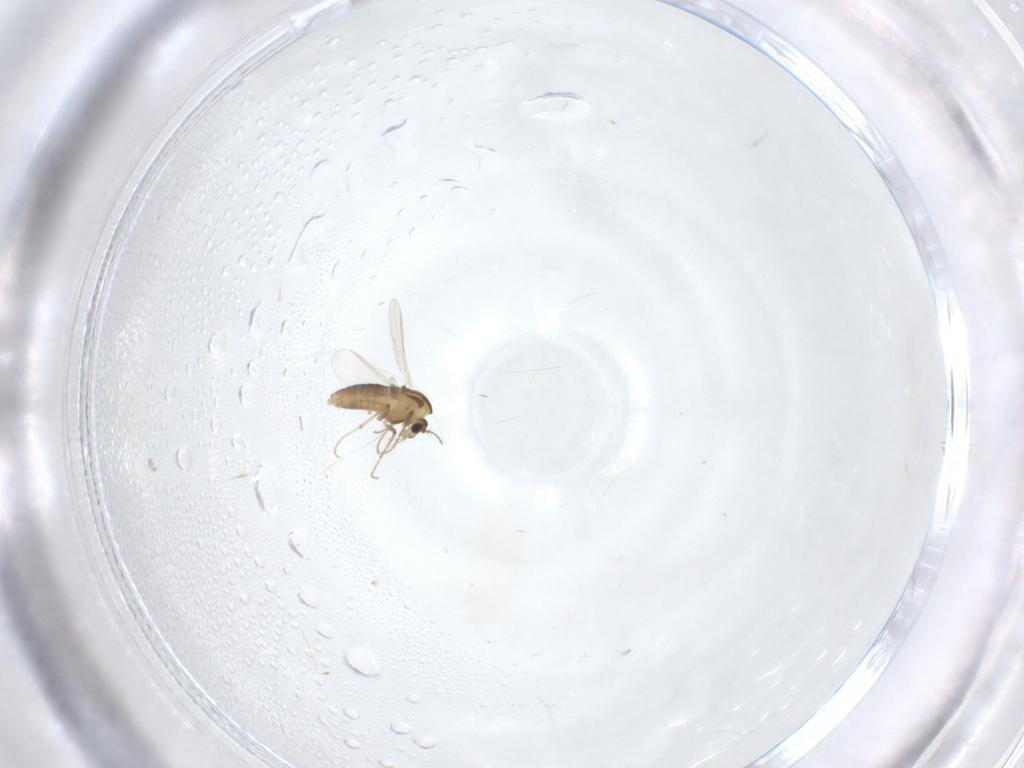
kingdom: Animalia
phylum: Arthropoda
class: Insecta
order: Diptera
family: Chironomidae
